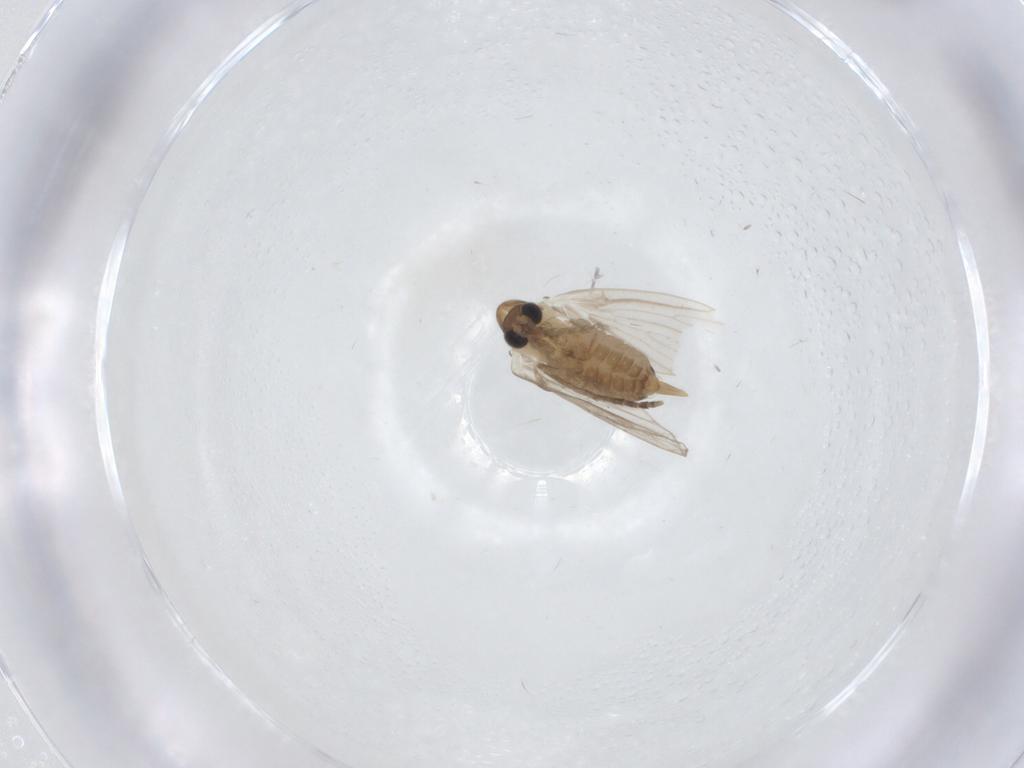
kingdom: Animalia
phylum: Arthropoda
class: Insecta
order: Diptera
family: Psychodidae
